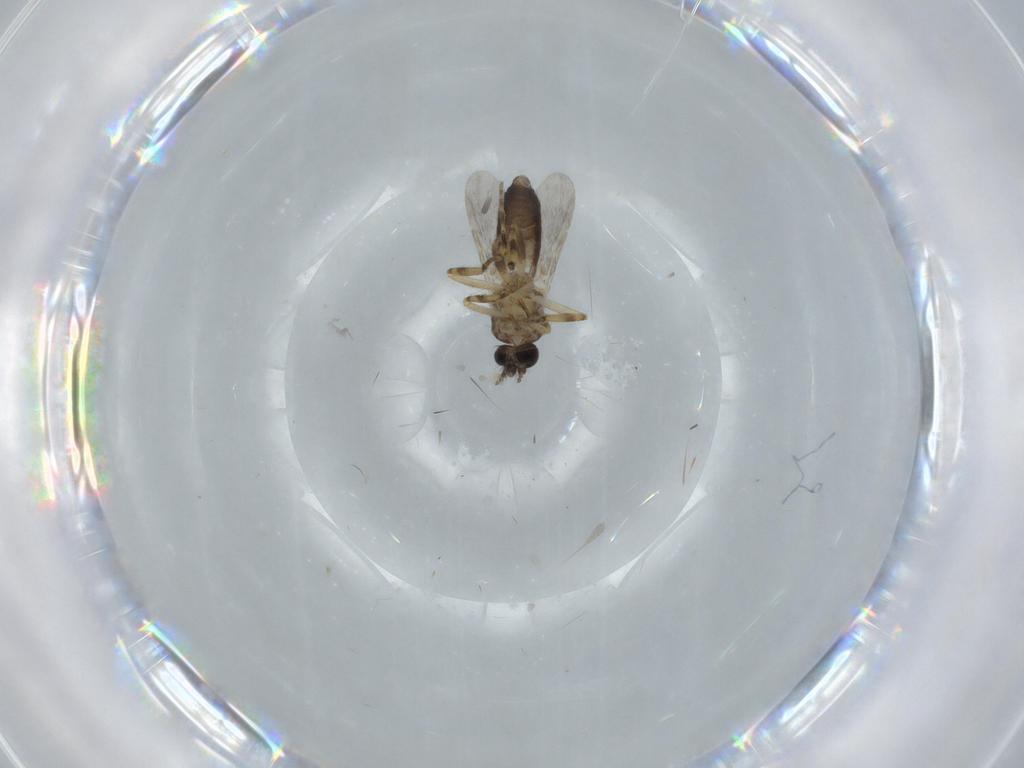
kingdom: Animalia
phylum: Arthropoda
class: Insecta
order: Diptera
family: Ceratopogonidae
